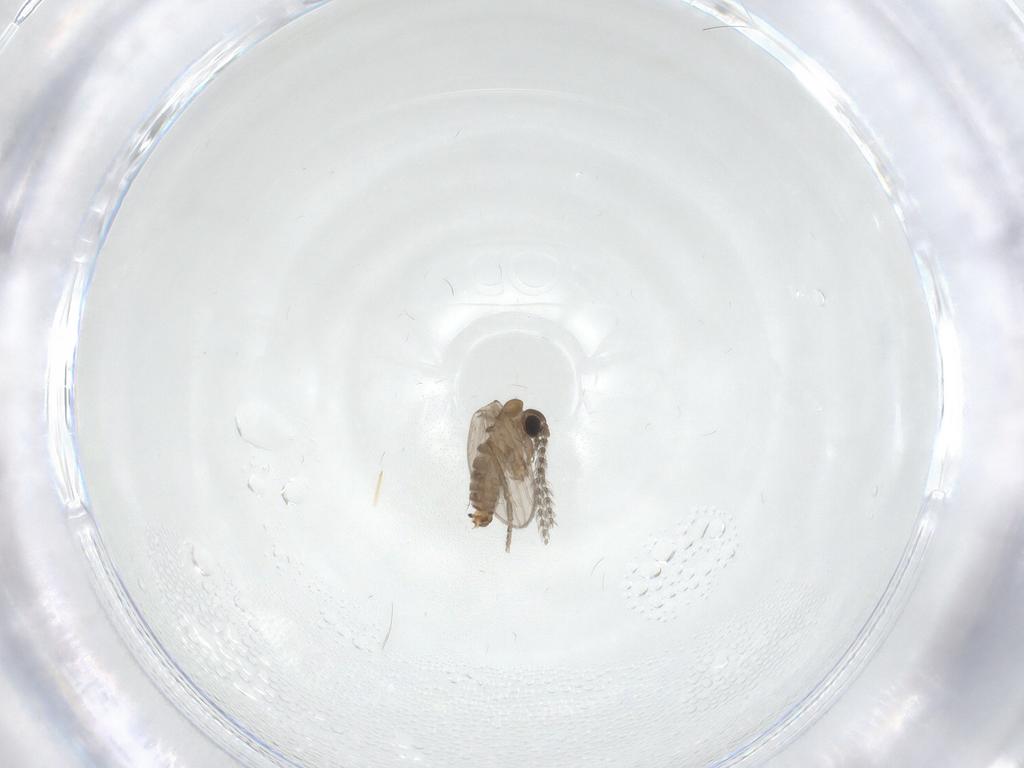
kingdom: Animalia
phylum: Arthropoda
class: Insecta
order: Diptera
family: Psychodidae
